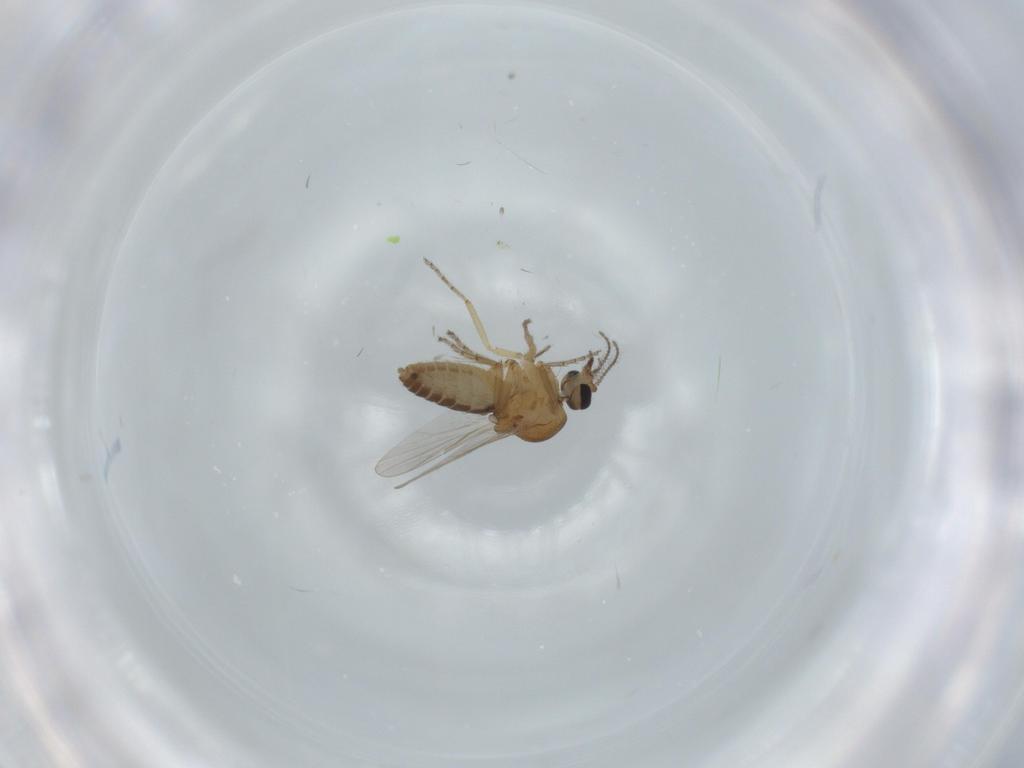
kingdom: Animalia
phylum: Arthropoda
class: Insecta
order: Diptera
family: Ceratopogonidae
